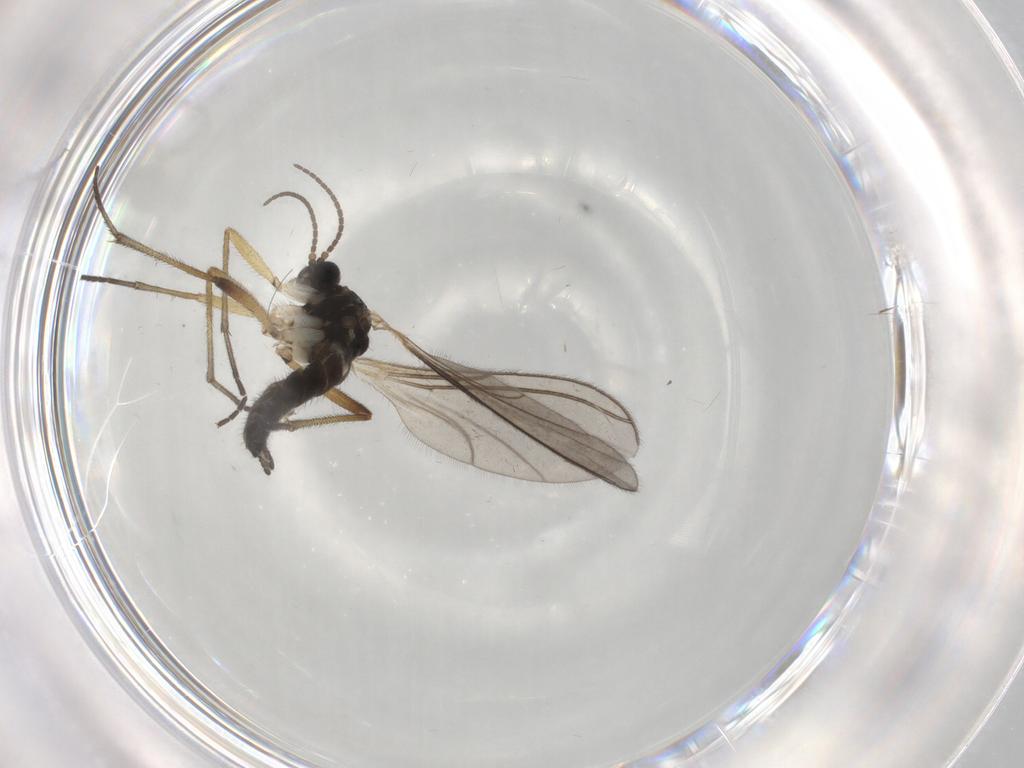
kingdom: Animalia
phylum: Arthropoda
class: Insecta
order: Diptera
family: Sciaridae
